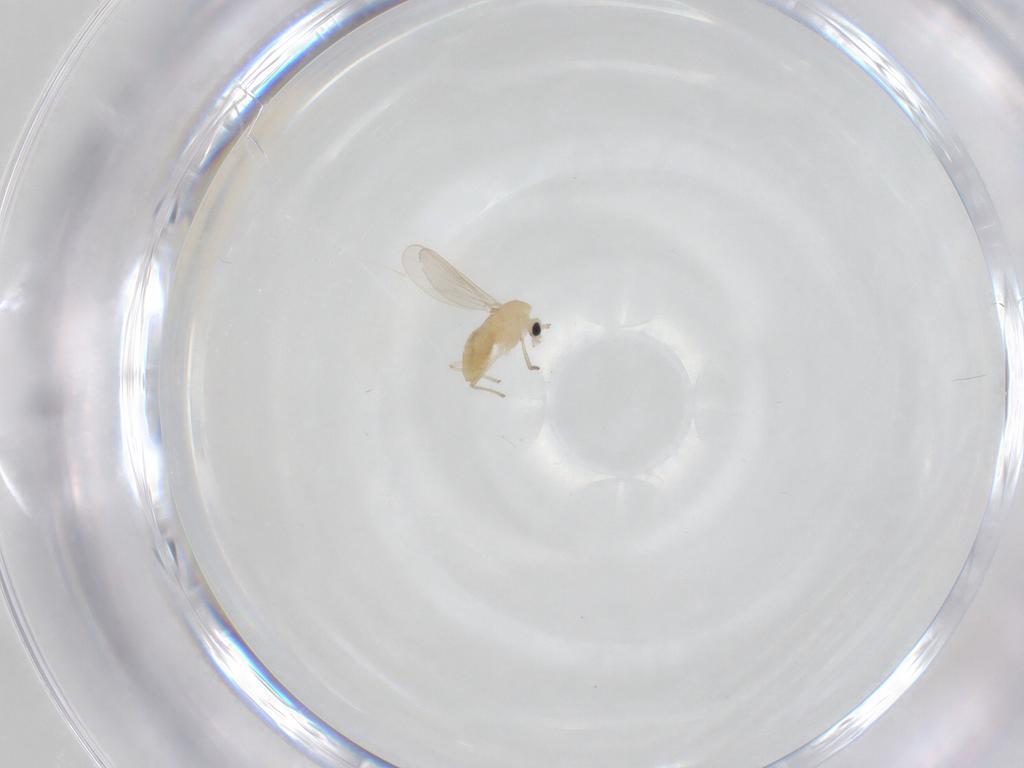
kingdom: Animalia
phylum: Arthropoda
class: Insecta
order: Diptera
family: Chironomidae
